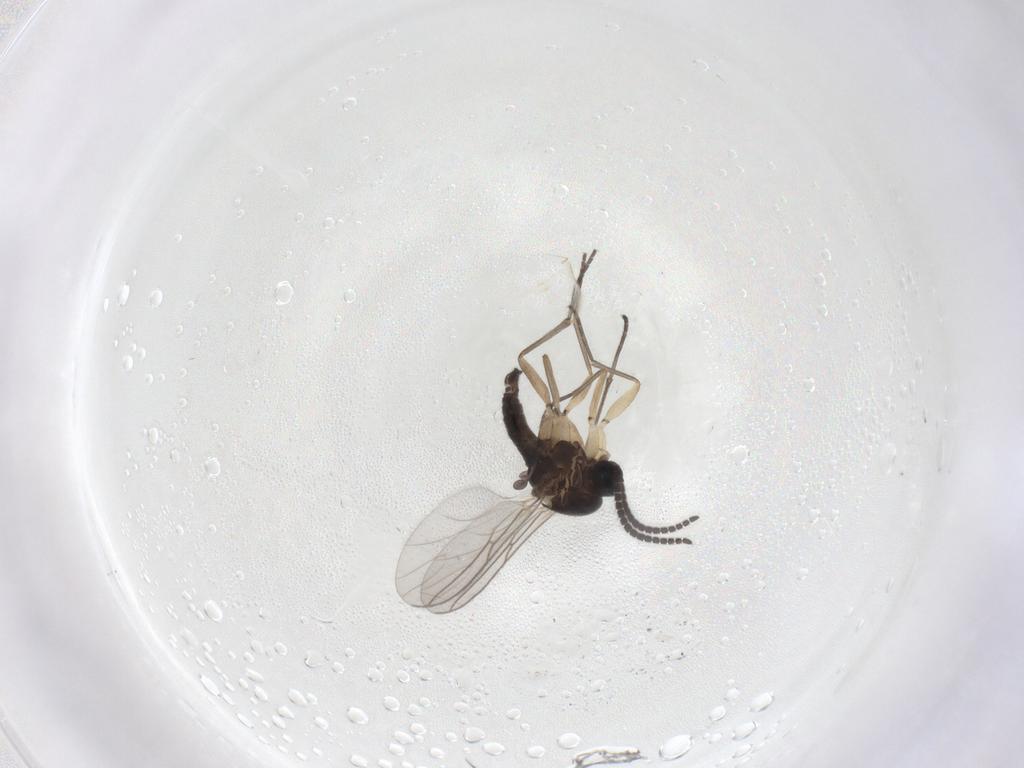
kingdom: Animalia
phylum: Arthropoda
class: Insecta
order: Diptera
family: Sciaridae
